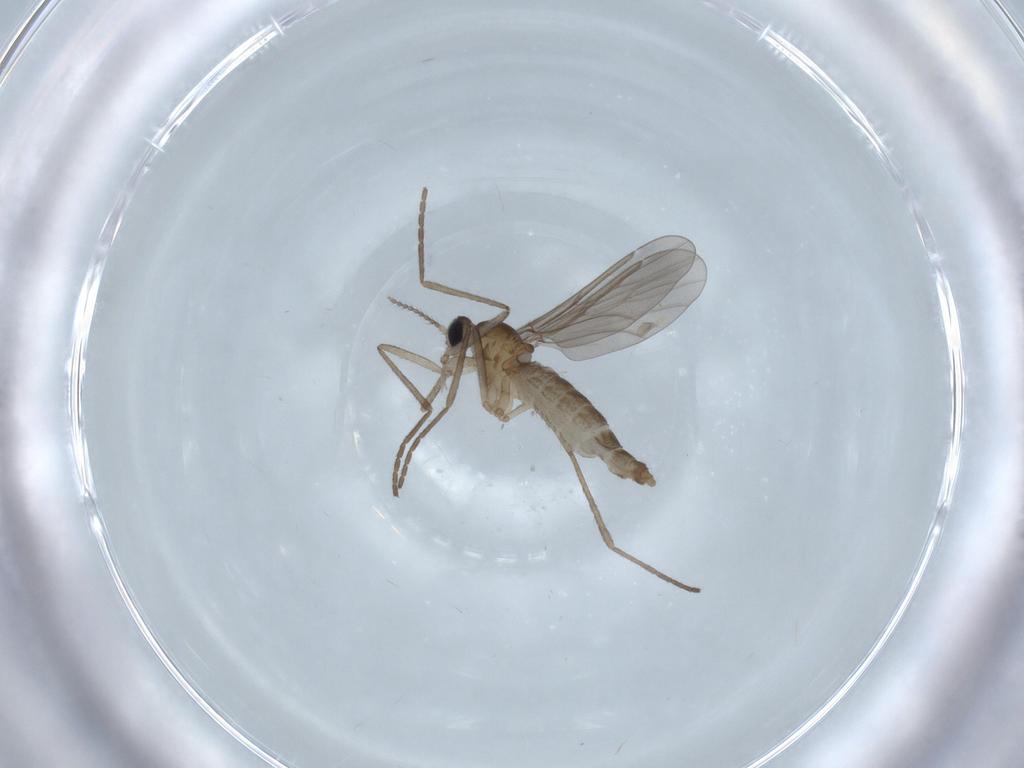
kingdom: Animalia
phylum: Arthropoda
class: Insecta
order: Diptera
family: Cecidomyiidae
